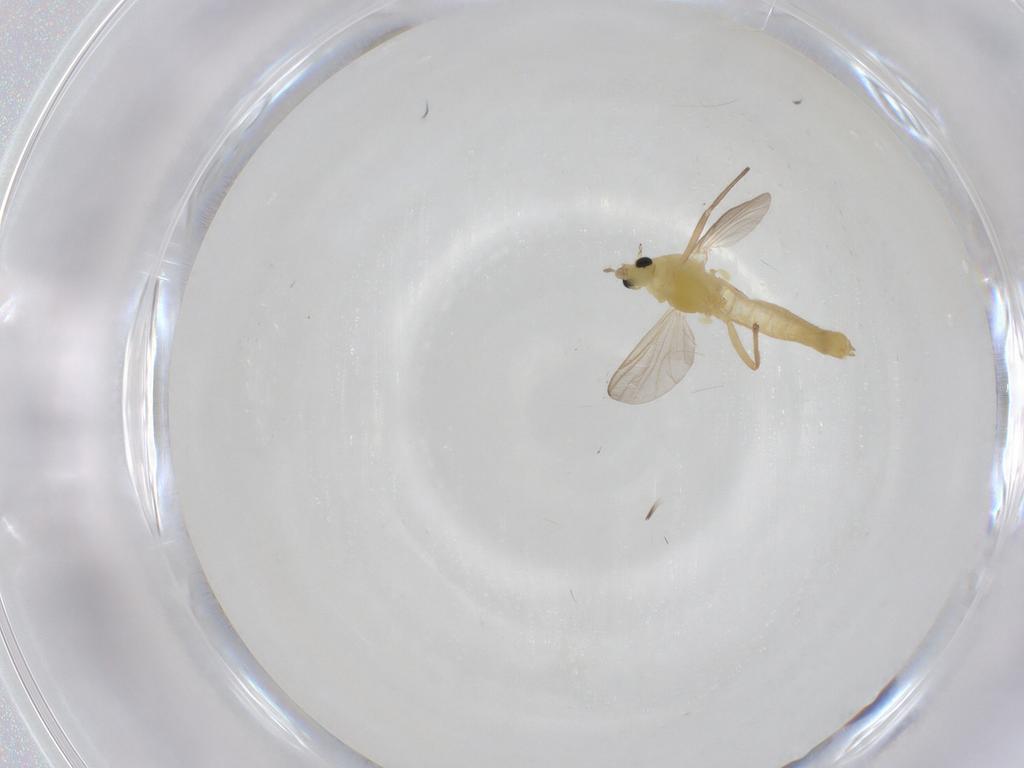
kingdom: Animalia
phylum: Arthropoda
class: Insecta
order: Diptera
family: Chironomidae
